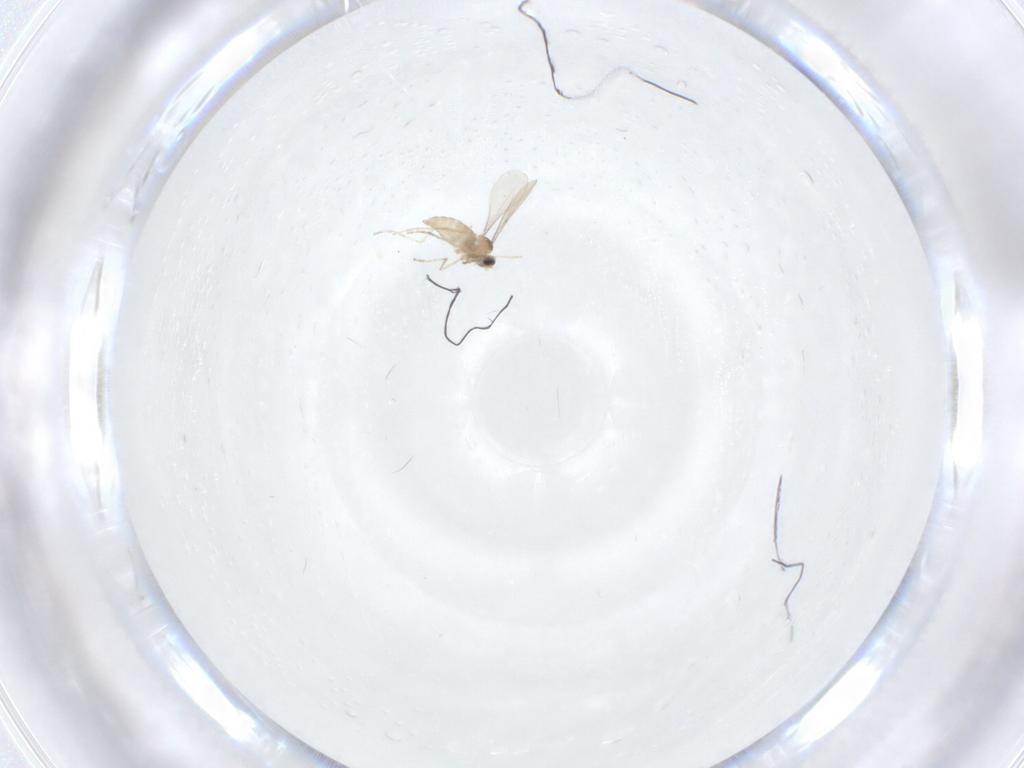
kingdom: Animalia
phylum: Arthropoda
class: Insecta
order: Diptera
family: Cecidomyiidae
